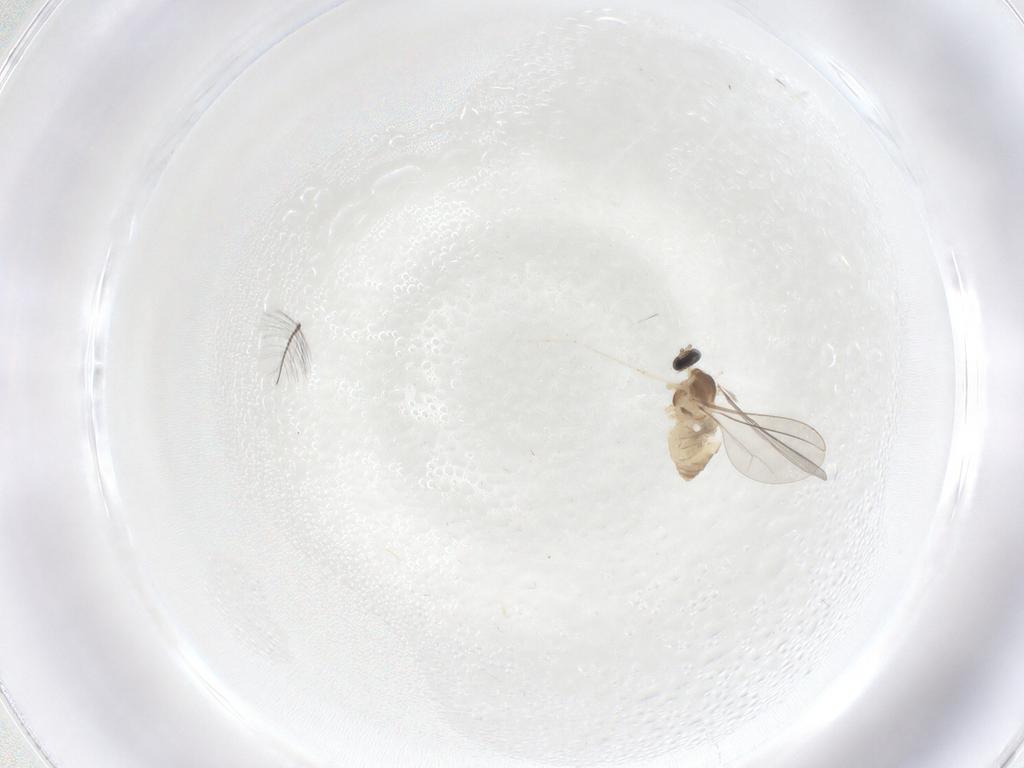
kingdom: Animalia
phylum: Arthropoda
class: Insecta
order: Diptera
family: Cecidomyiidae
